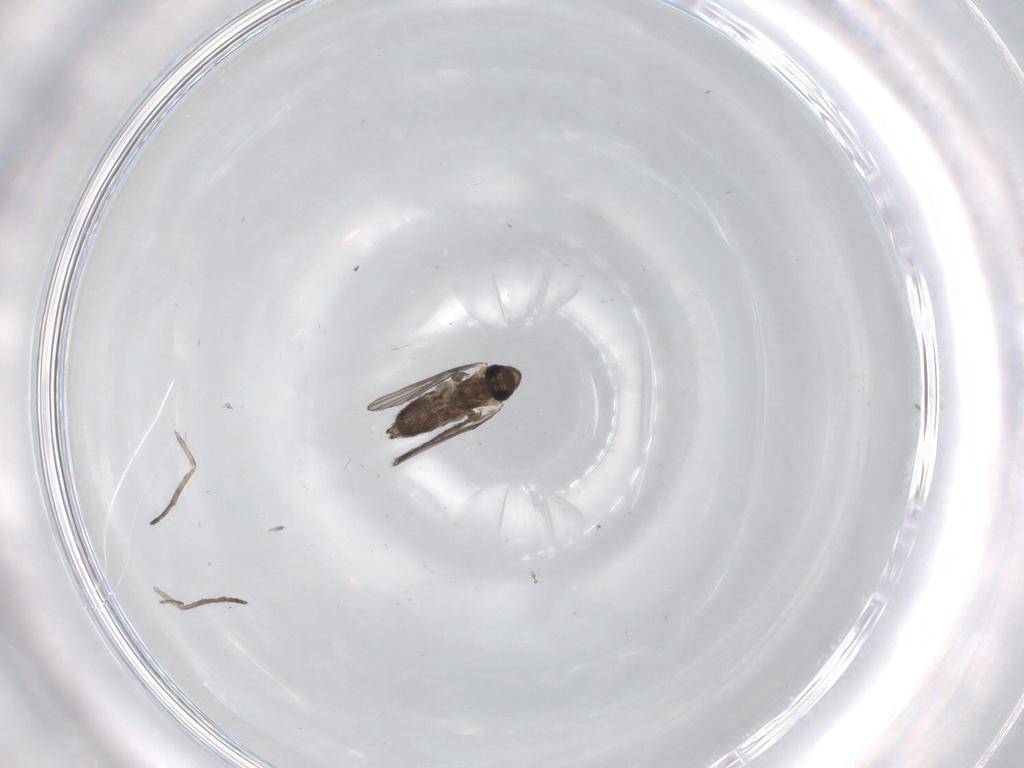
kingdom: Animalia
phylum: Arthropoda
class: Insecta
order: Diptera
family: Psychodidae
